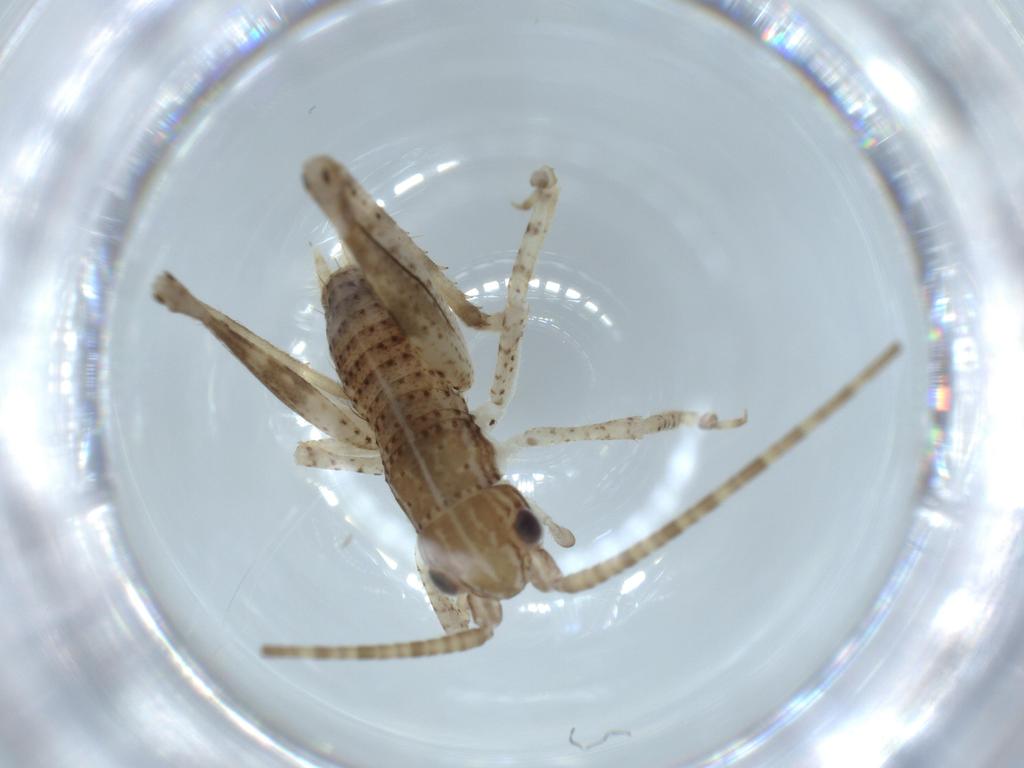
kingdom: Animalia
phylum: Arthropoda
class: Insecta
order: Orthoptera
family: Gryllidae
